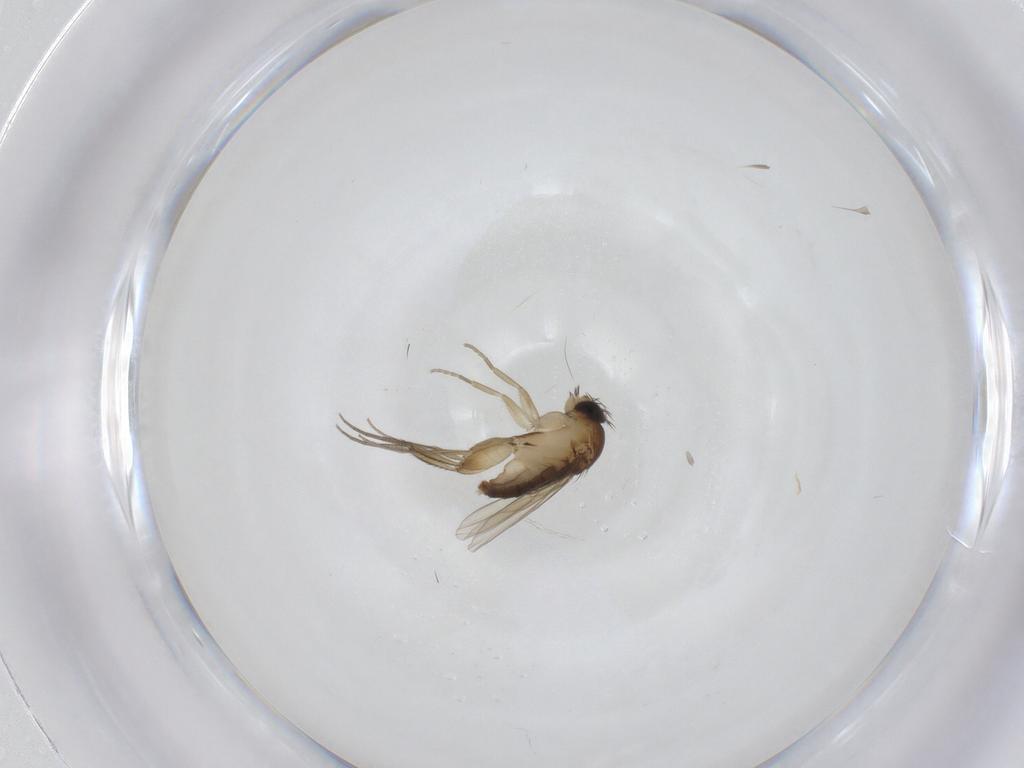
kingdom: Animalia
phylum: Arthropoda
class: Insecta
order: Diptera
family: Phoridae
